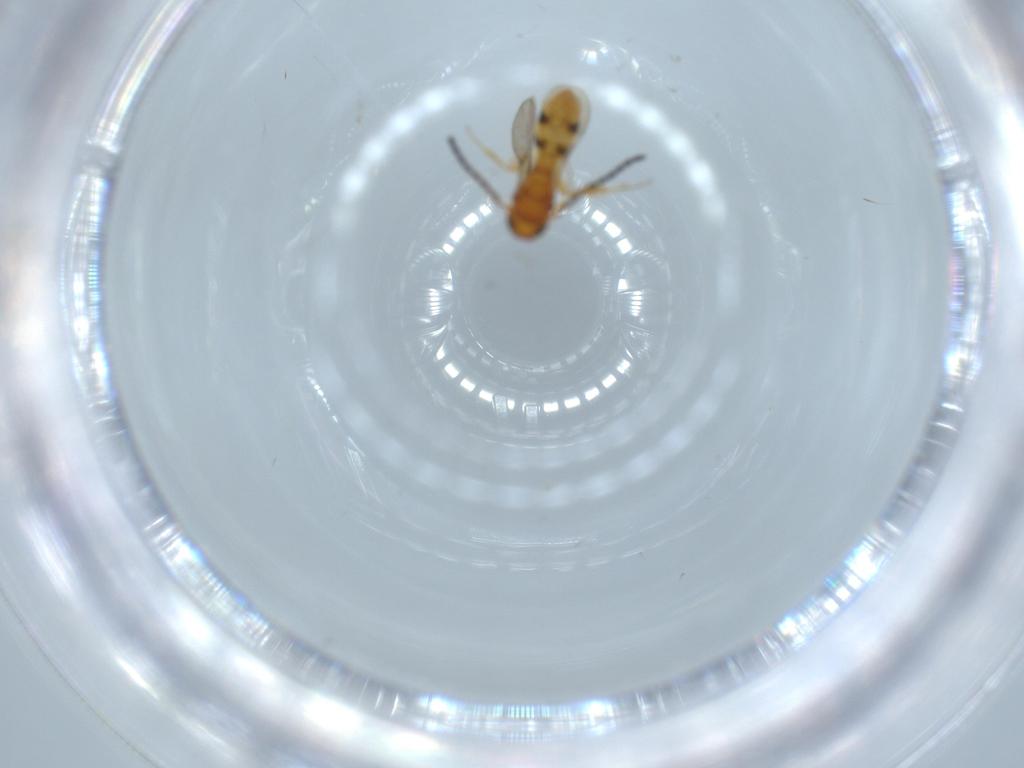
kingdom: Animalia
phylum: Arthropoda
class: Insecta
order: Hymenoptera
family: Scelionidae
